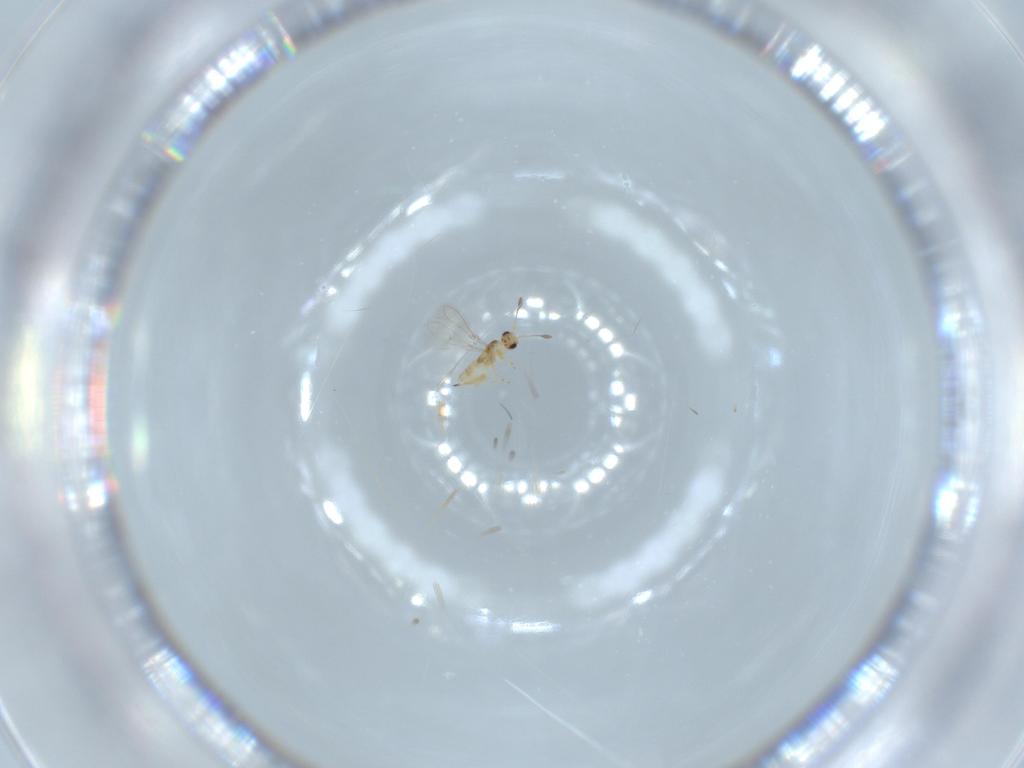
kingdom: Animalia
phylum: Arthropoda
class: Insecta
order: Hymenoptera
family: Mymaridae
